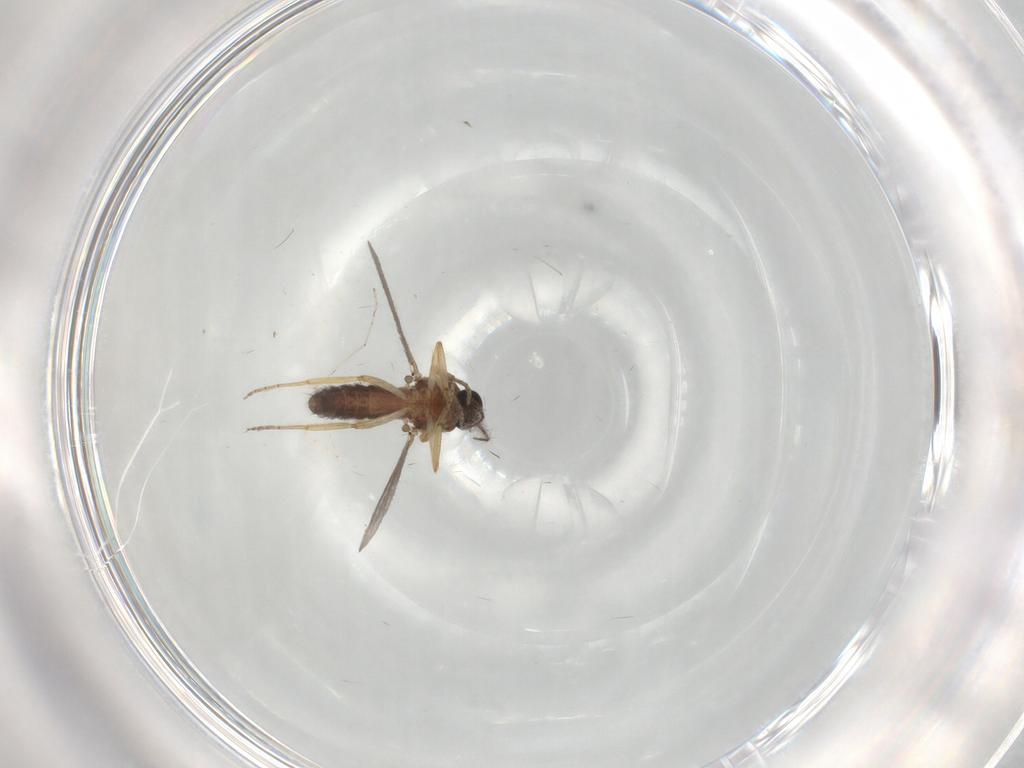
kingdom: Animalia
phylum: Arthropoda
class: Insecta
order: Diptera
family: Ceratopogonidae
